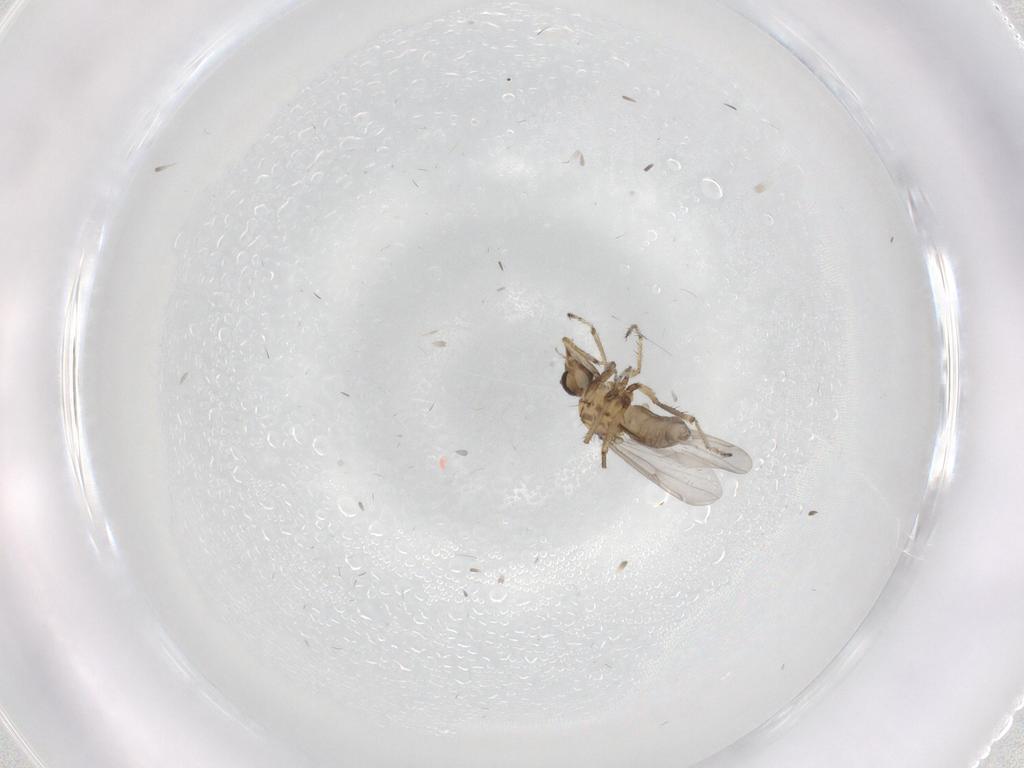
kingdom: Animalia
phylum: Arthropoda
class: Insecta
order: Diptera
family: Ceratopogonidae
